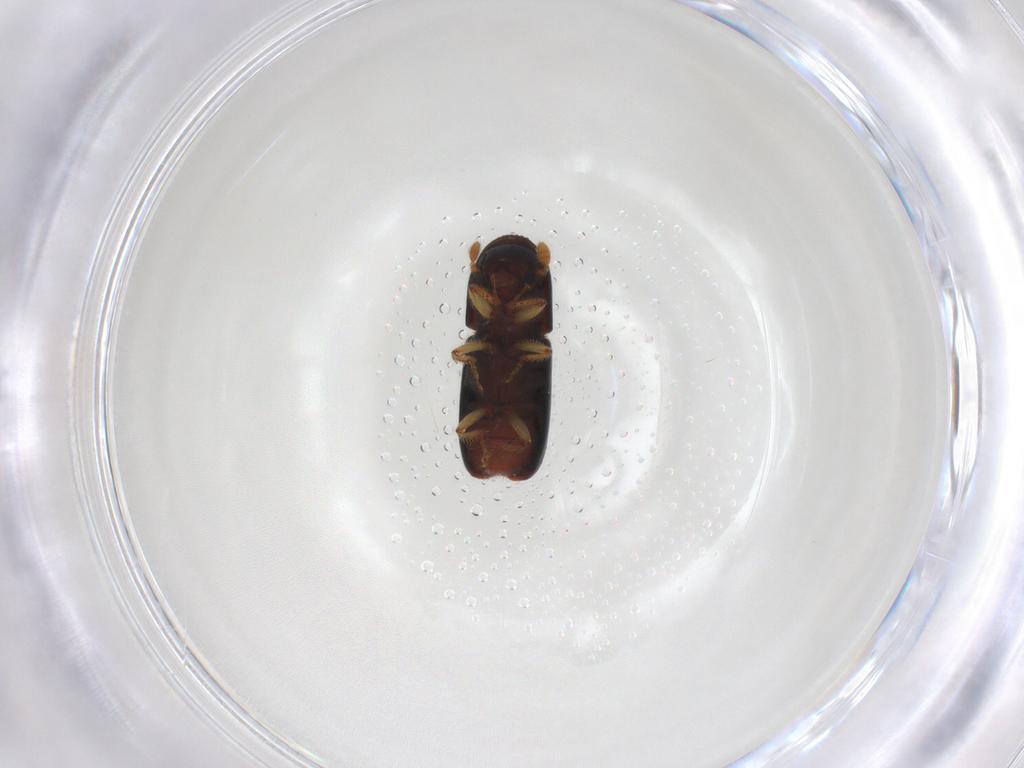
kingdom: Animalia
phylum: Arthropoda
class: Insecta
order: Coleoptera
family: Curculionidae
